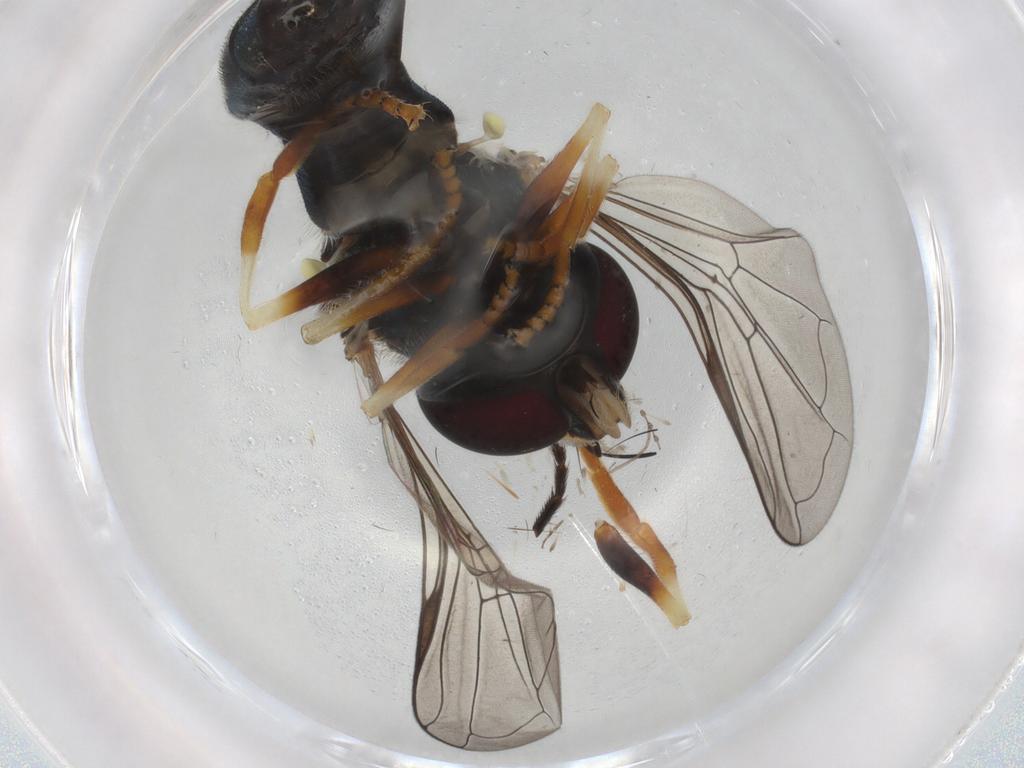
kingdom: Animalia
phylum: Arthropoda
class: Insecta
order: Diptera
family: Syrphidae
